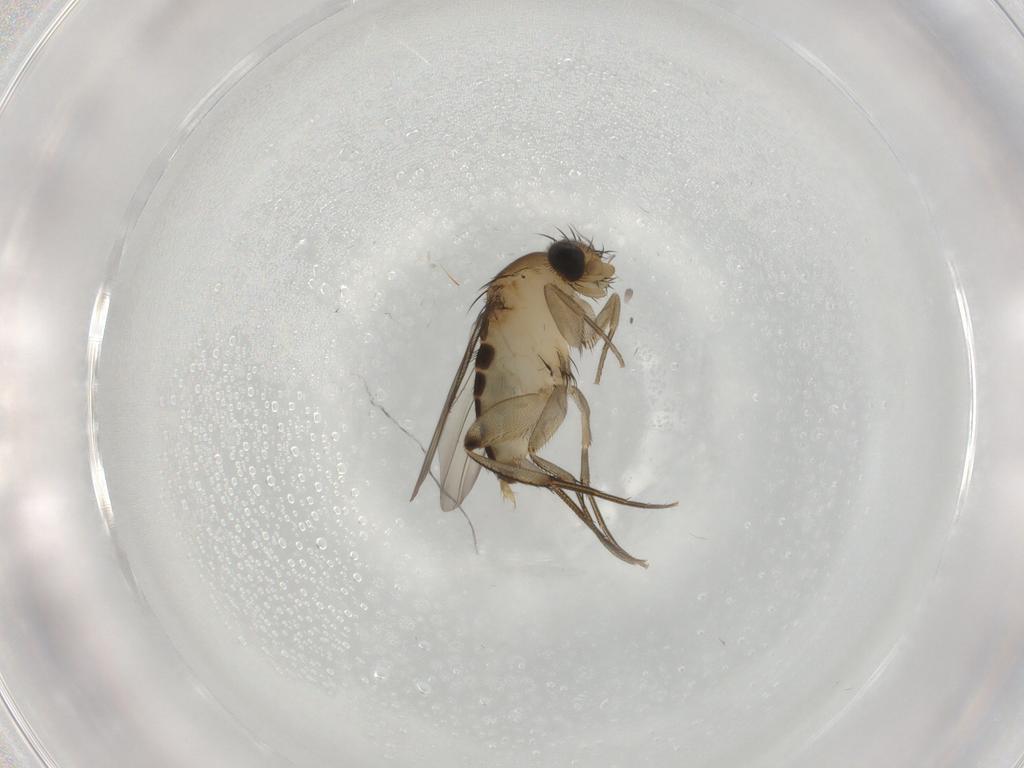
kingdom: Animalia
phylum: Arthropoda
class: Insecta
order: Diptera
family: Phoridae
